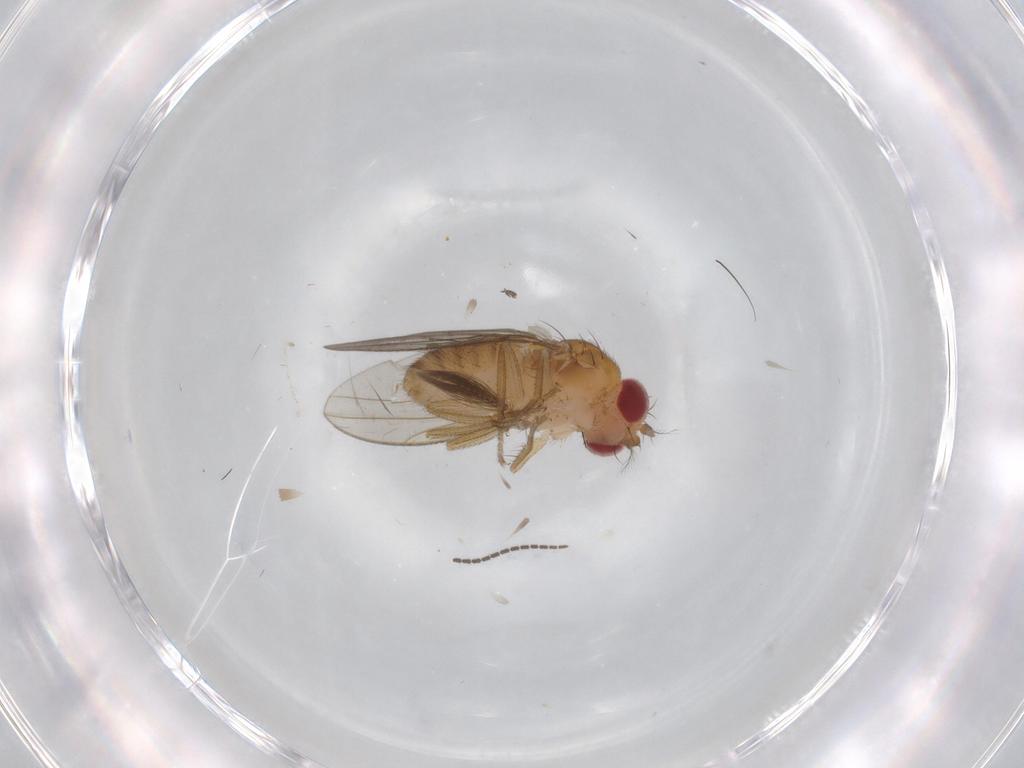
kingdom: Animalia
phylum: Arthropoda
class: Insecta
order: Diptera
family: Drosophilidae
